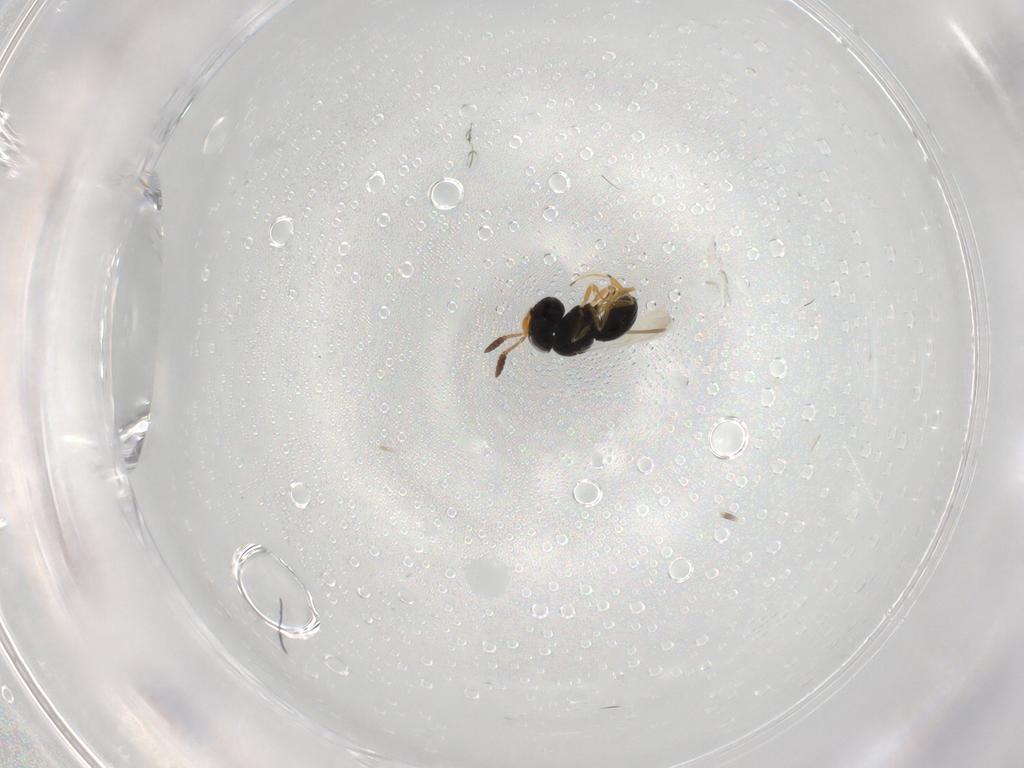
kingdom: Animalia
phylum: Arthropoda
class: Insecta
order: Hymenoptera
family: Scelionidae
